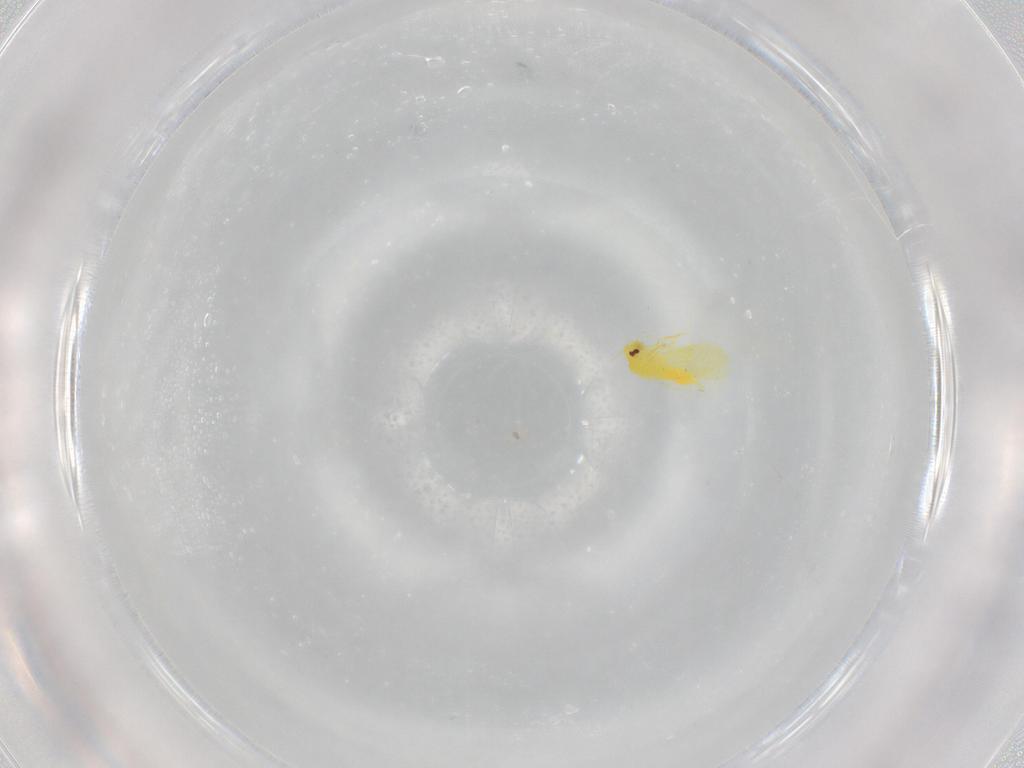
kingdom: Animalia
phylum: Arthropoda
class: Insecta
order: Hemiptera
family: Aleyrodidae
